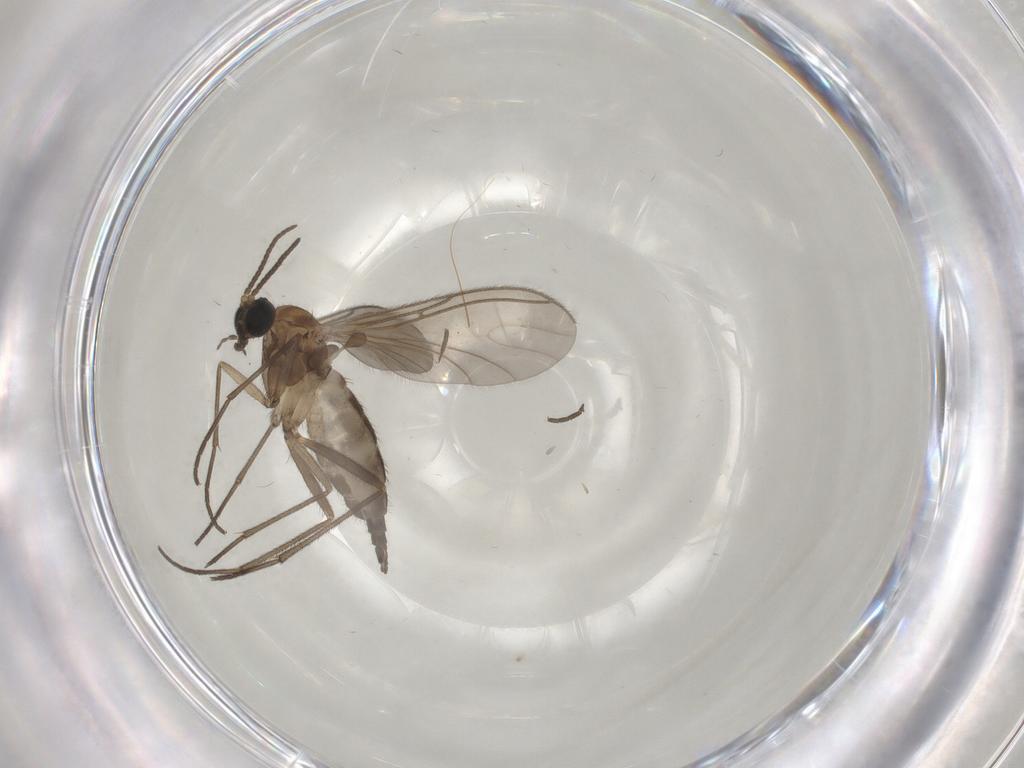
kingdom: Animalia
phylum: Arthropoda
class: Insecta
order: Diptera
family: Sciaridae
